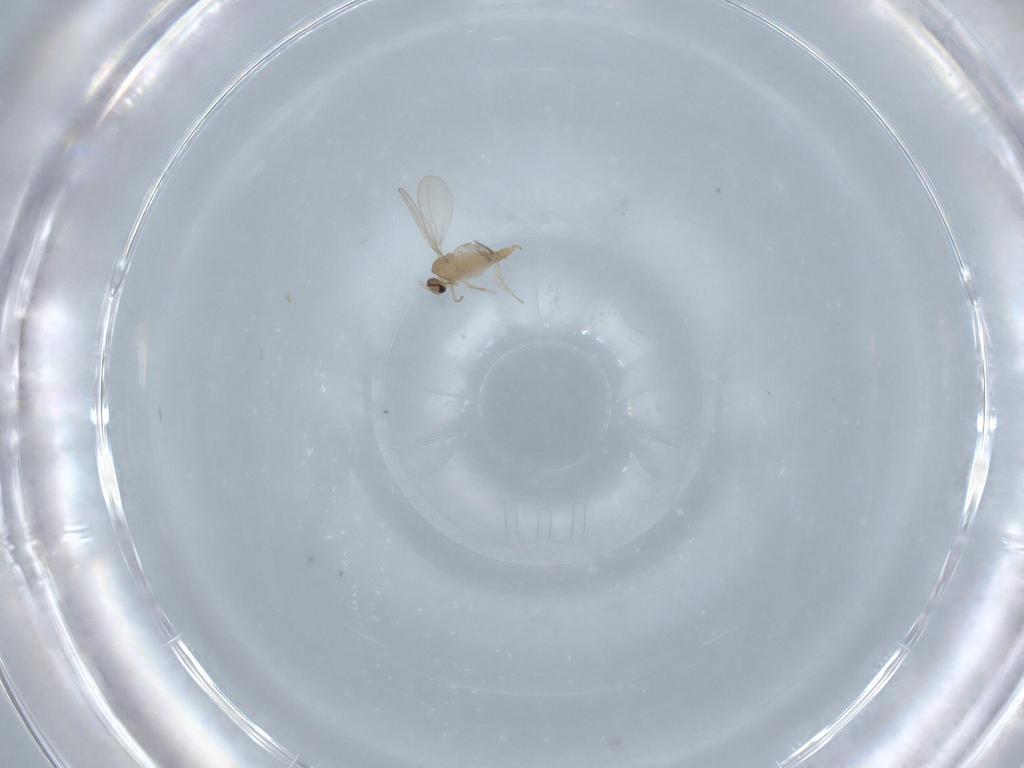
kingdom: Animalia
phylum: Arthropoda
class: Insecta
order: Diptera
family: Cecidomyiidae
